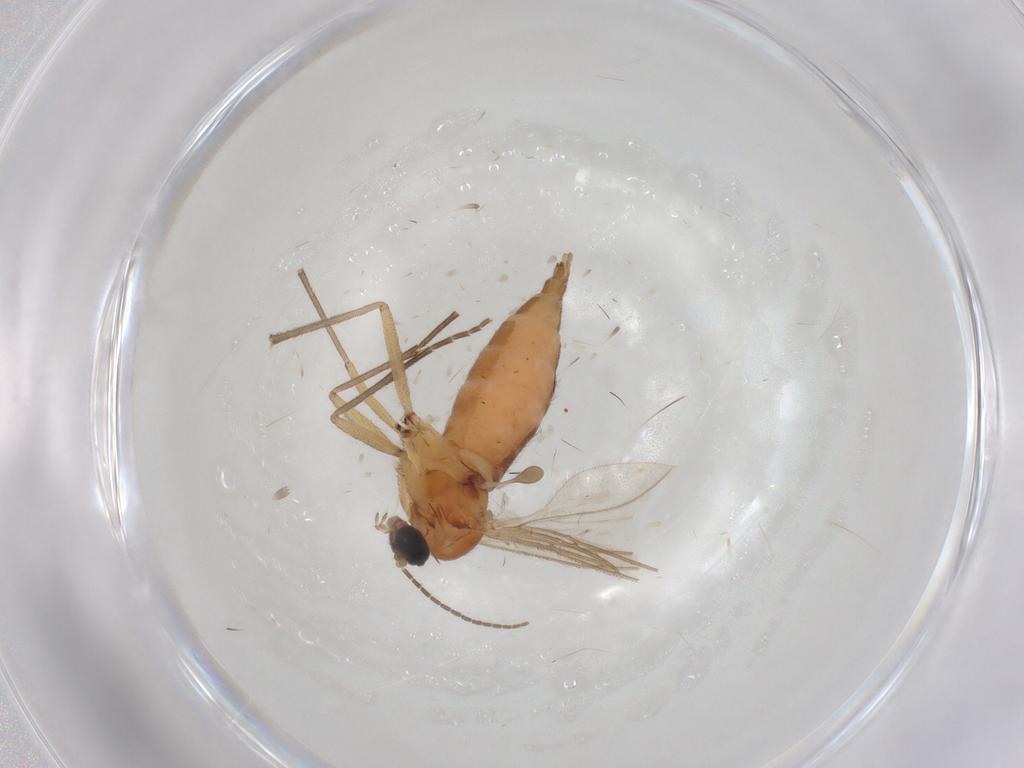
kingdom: Animalia
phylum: Arthropoda
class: Insecta
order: Diptera
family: Sciaridae
